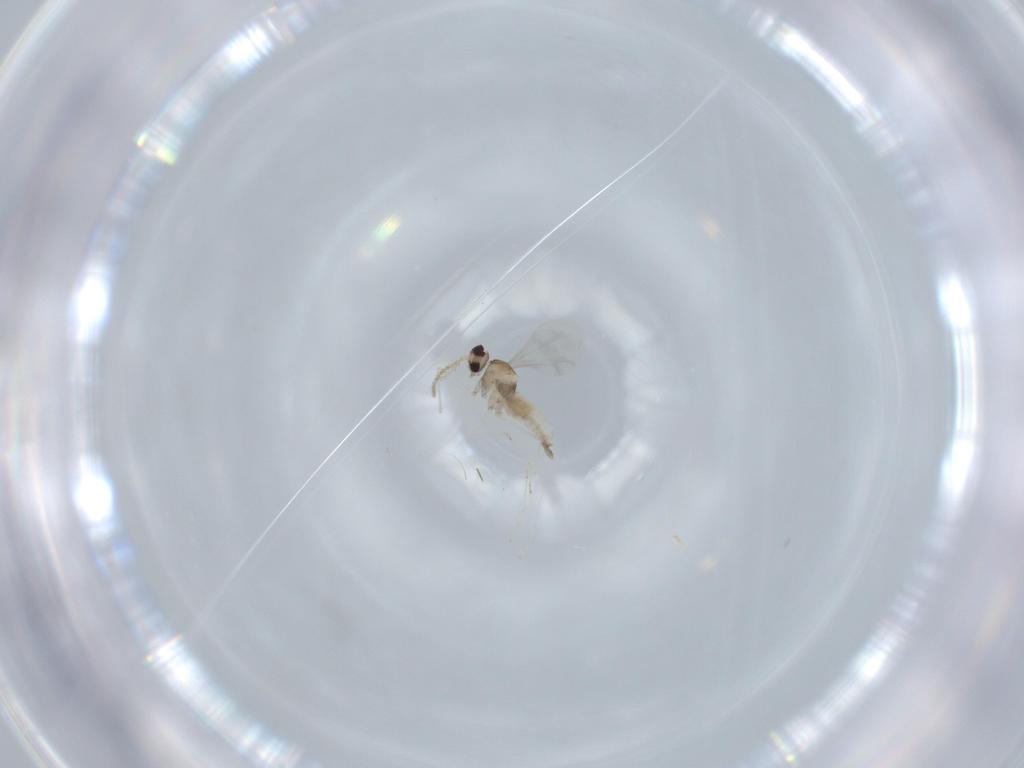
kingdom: Animalia
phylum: Arthropoda
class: Insecta
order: Diptera
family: Cecidomyiidae
